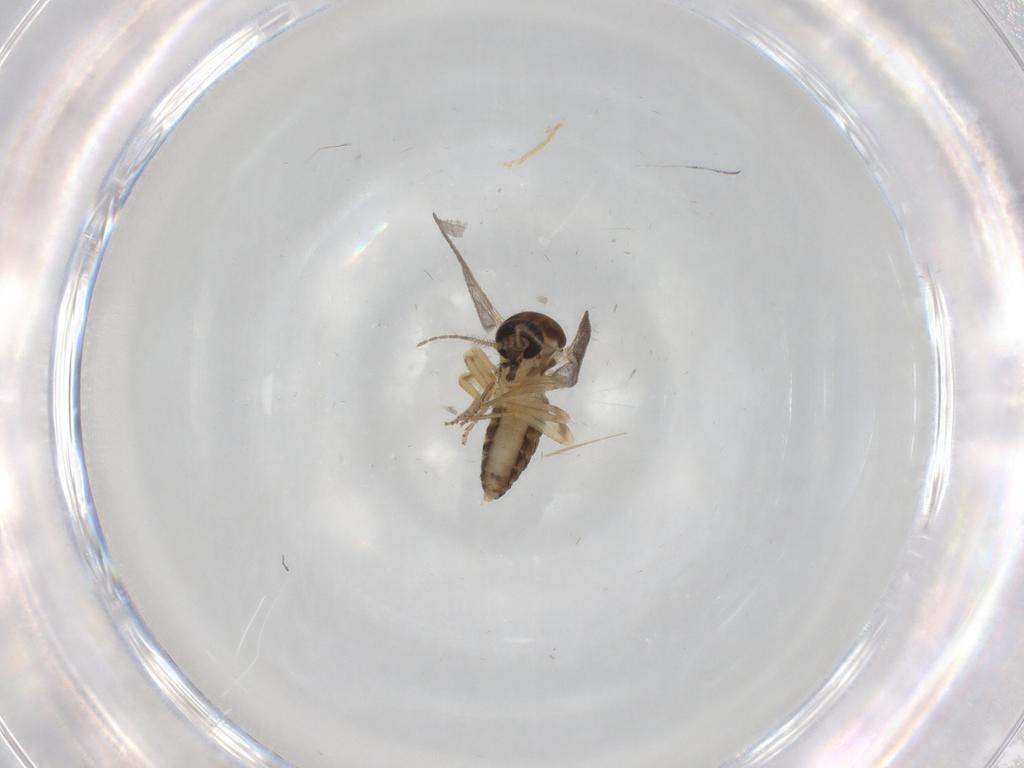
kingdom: Animalia
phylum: Arthropoda
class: Insecta
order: Diptera
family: Ceratopogonidae
